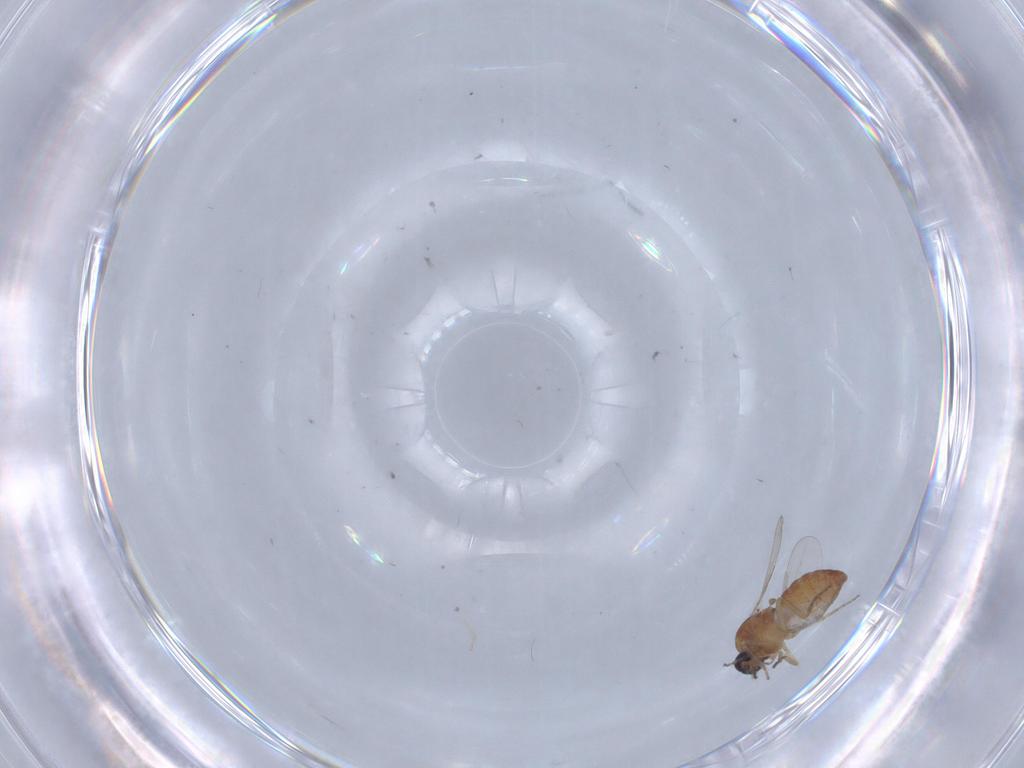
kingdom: Animalia
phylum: Arthropoda
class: Insecta
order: Diptera
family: Ceratopogonidae
